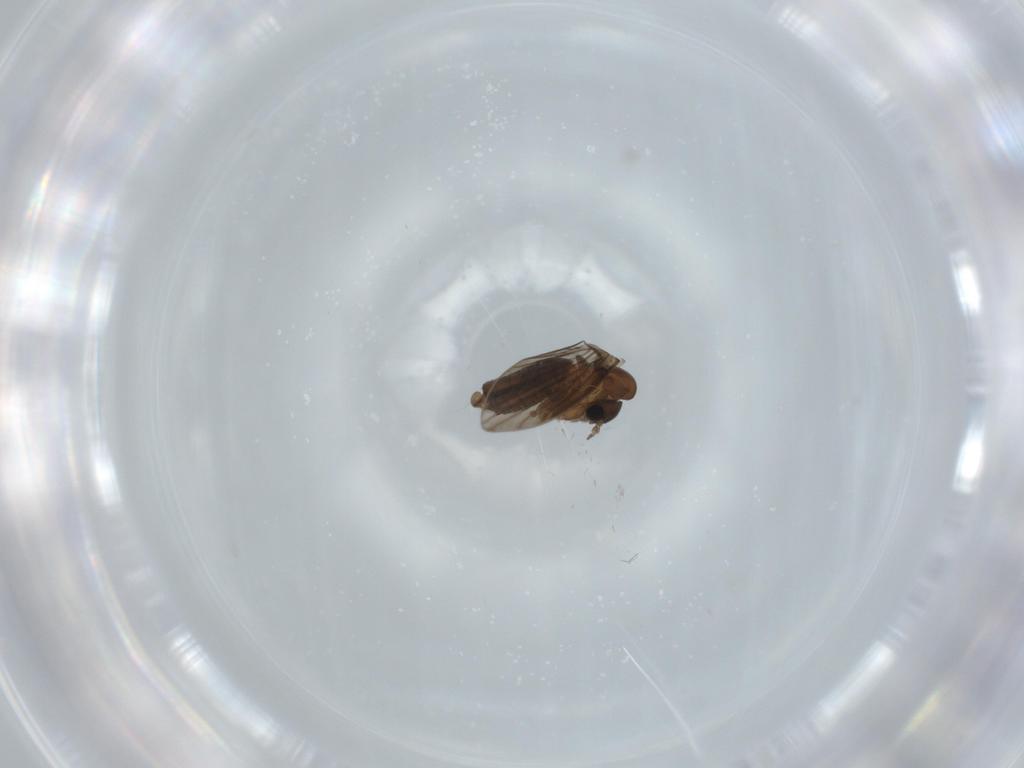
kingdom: Animalia
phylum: Arthropoda
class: Insecta
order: Diptera
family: Psychodidae
